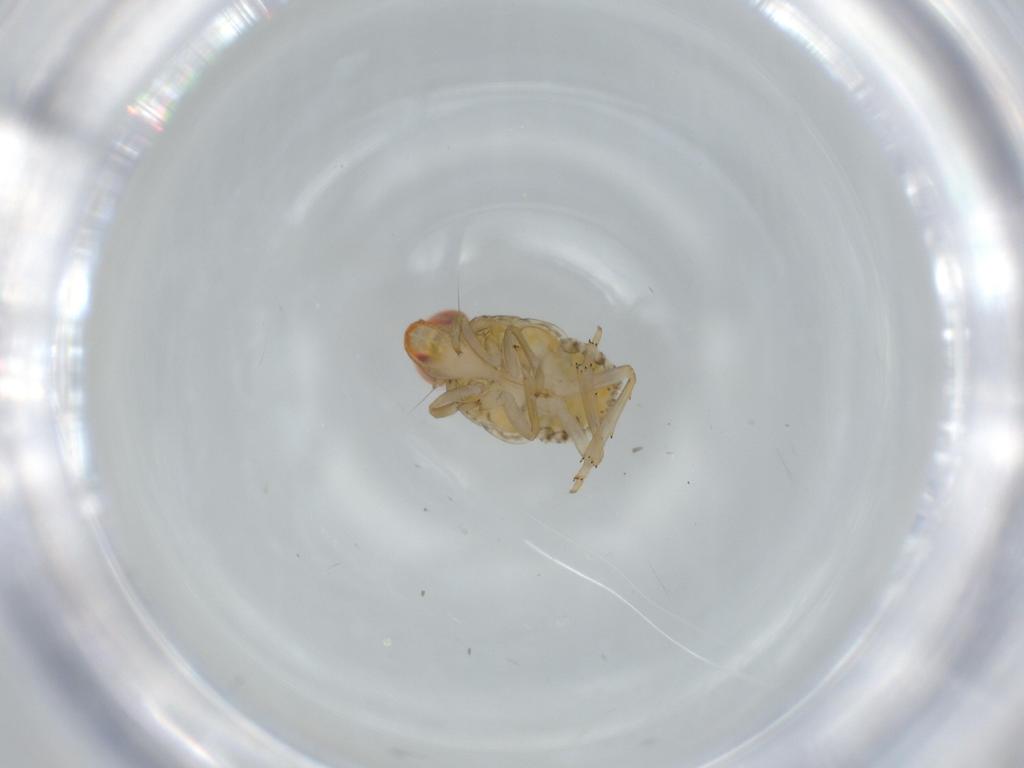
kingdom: Animalia
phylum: Arthropoda
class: Insecta
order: Hemiptera
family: Fulgoroidea_incertae_sedis
